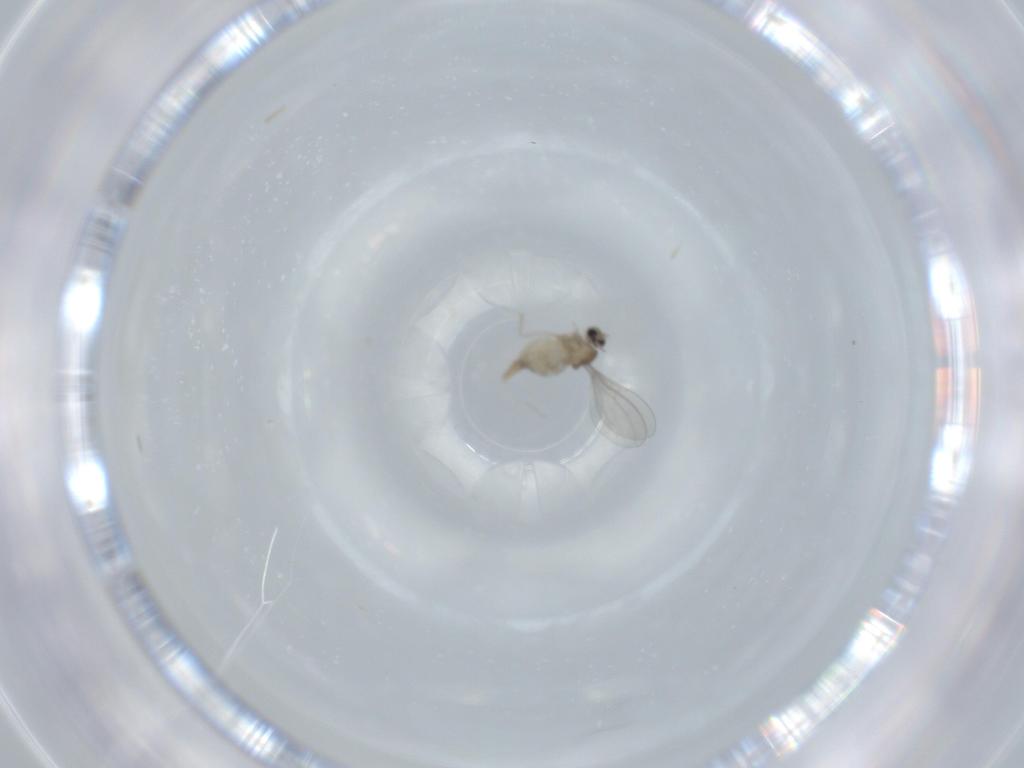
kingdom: Animalia
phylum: Arthropoda
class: Insecta
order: Diptera
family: Cecidomyiidae
